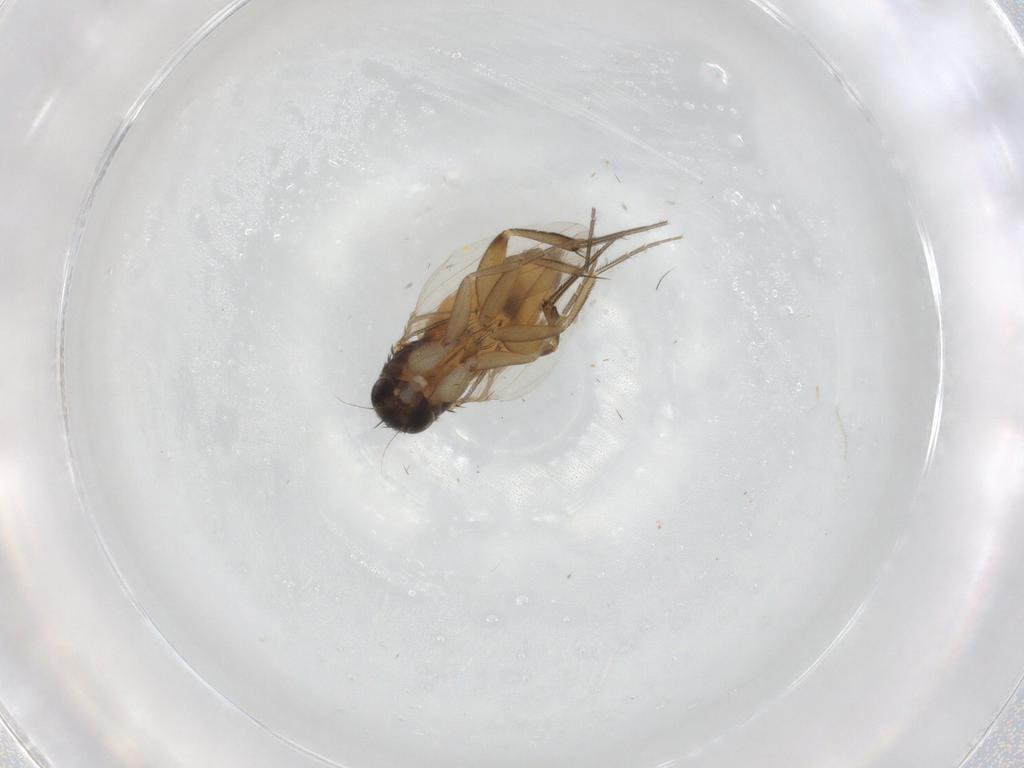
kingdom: Animalia
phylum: Arthropoda
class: Insecta
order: Diptera
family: Phoridae
